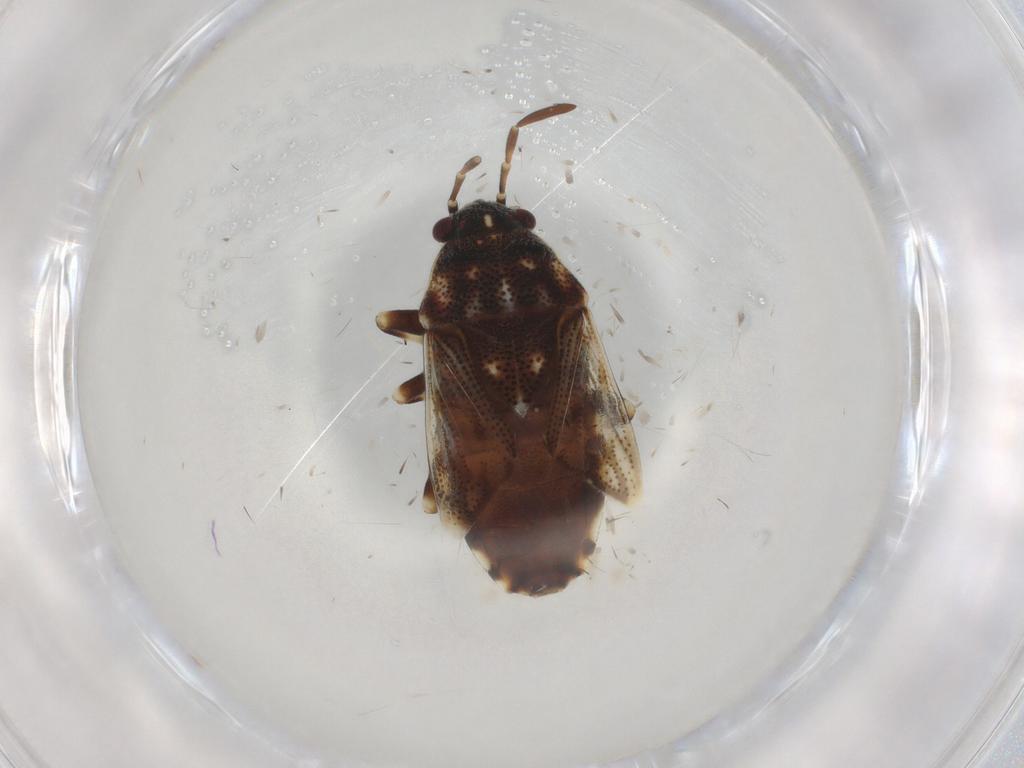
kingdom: Animalia
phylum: Arthropoda
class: Insecta
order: Hemiptera
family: Rhopalidae
